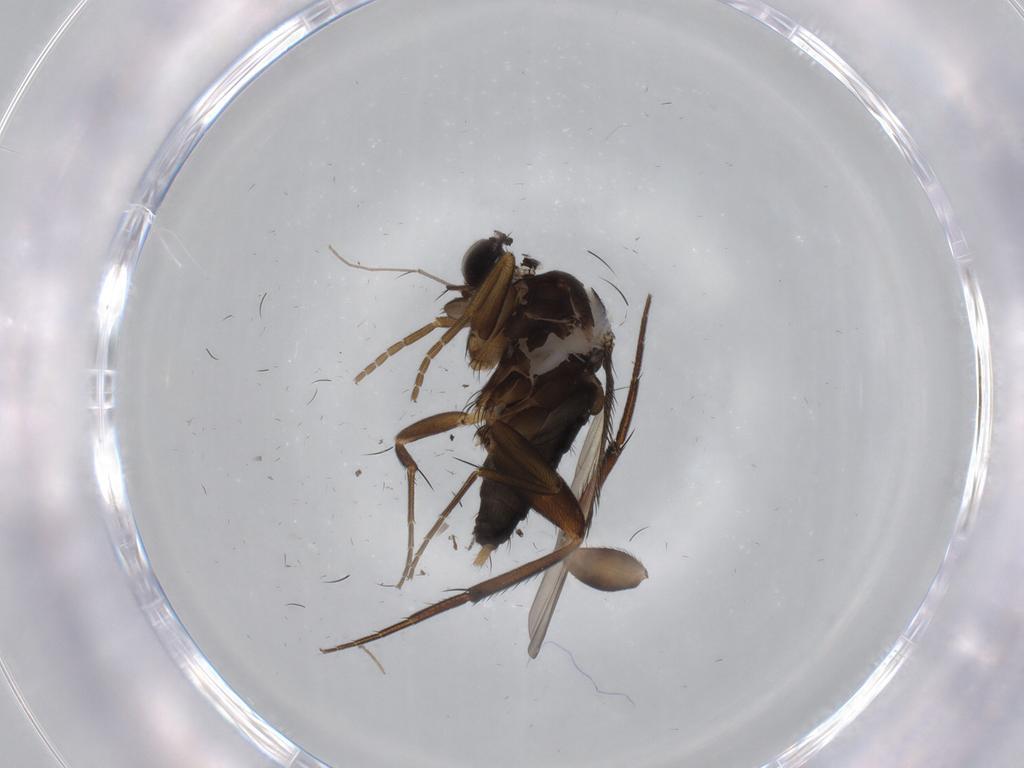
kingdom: Animalia
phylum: Arthropoda
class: Insecta
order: Diptera
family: Phoridae
